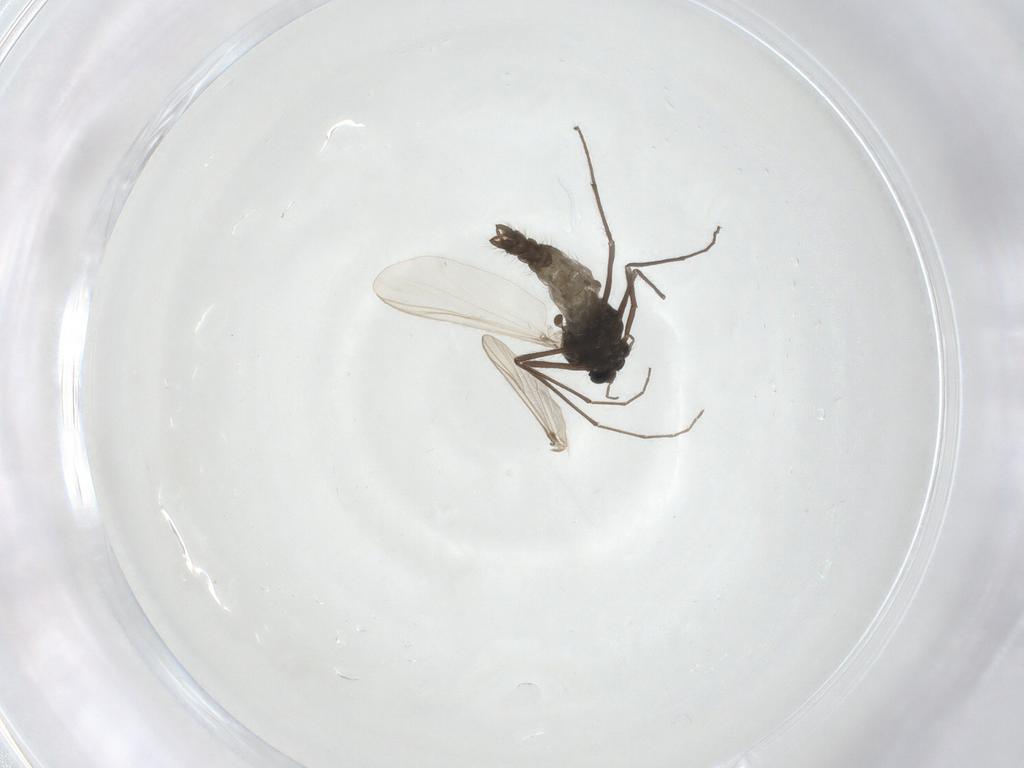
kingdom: Animalia
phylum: Arthropoda
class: Insecta
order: Diptera
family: Chironomidae
